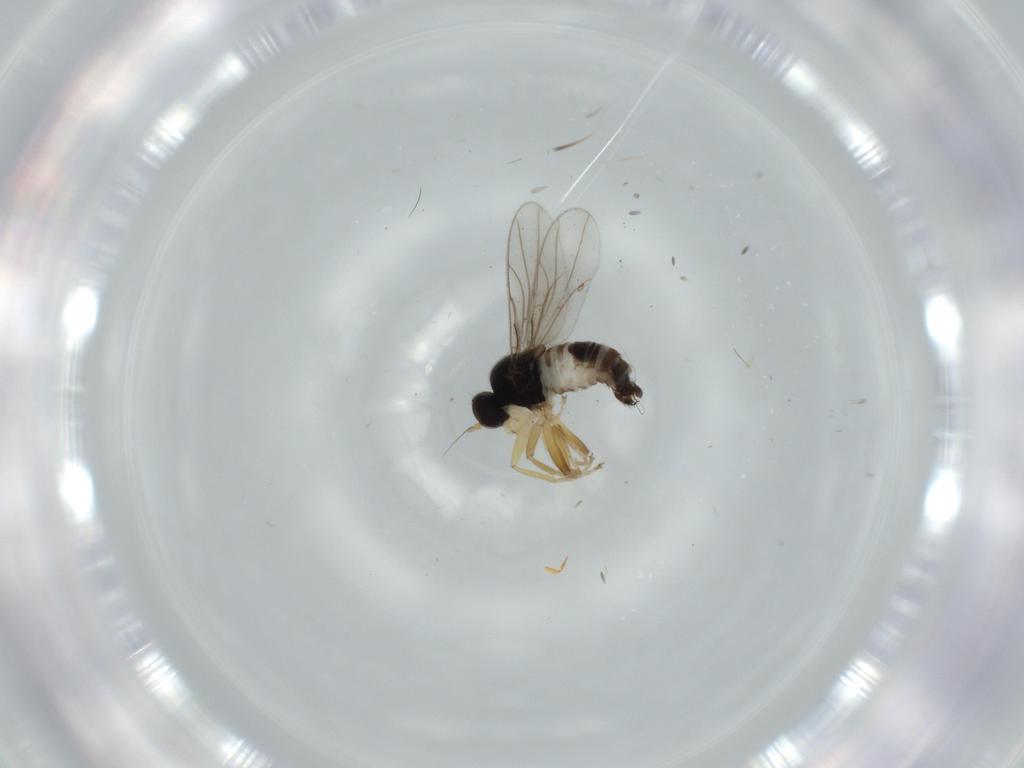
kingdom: Animalia
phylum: Arthropoda
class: Insecta
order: Diptera
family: Hybotidae
